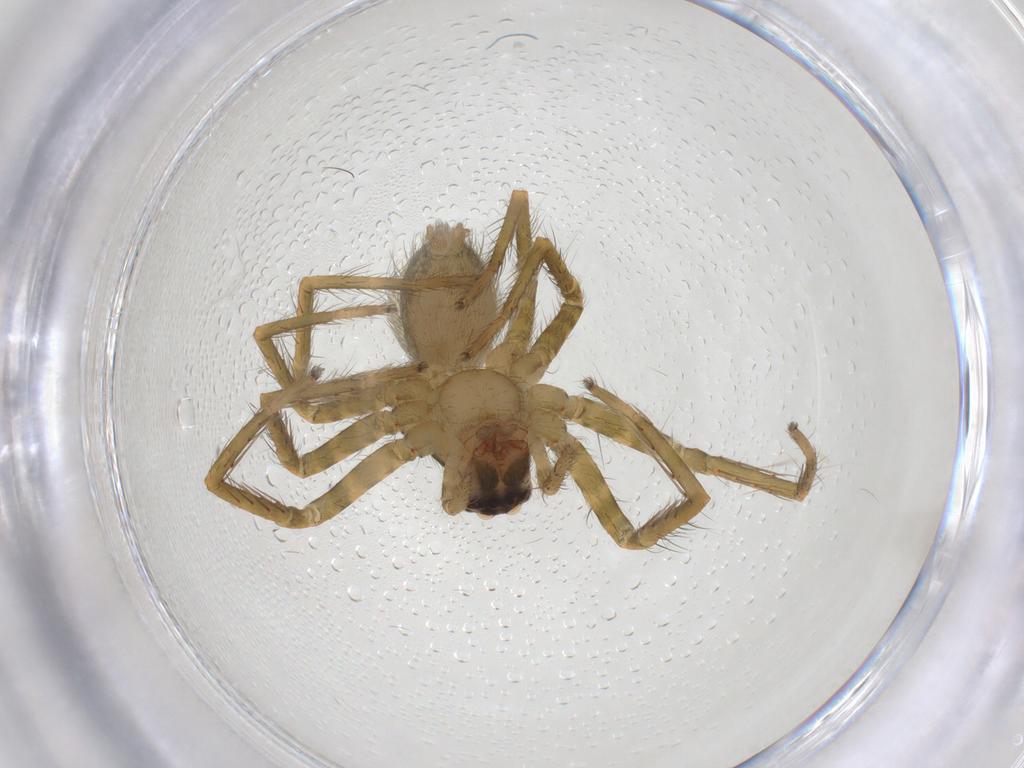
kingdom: Animalia
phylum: Arthropoda
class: Arachnida
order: Araneae
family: Trechaleidae
